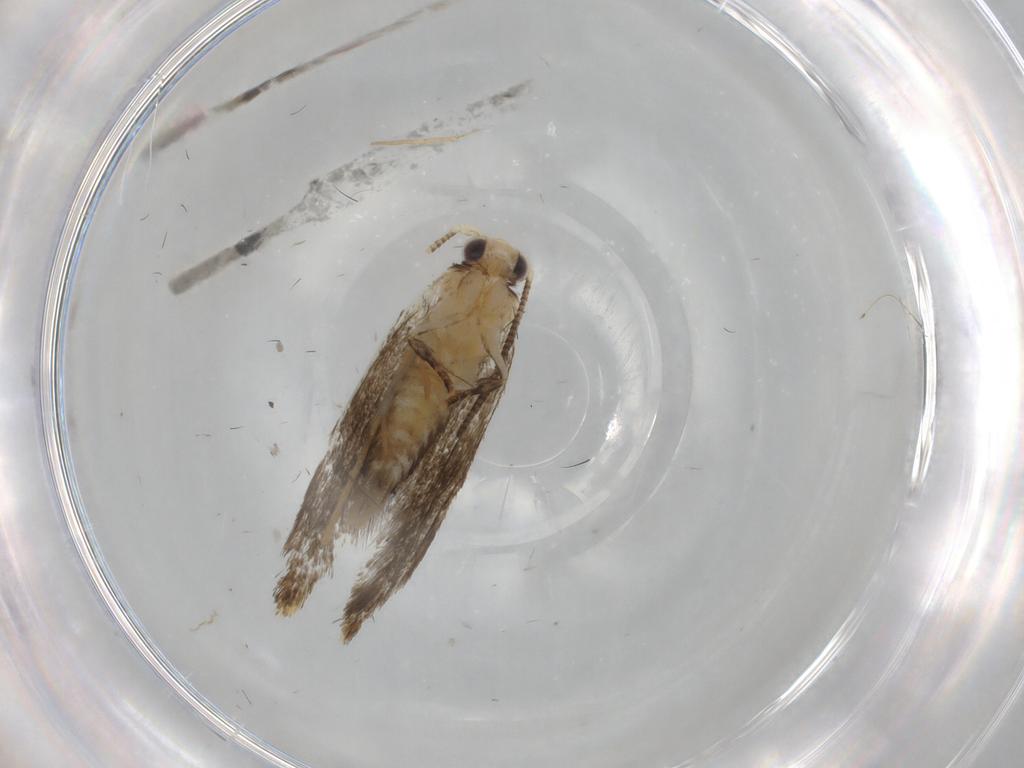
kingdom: Animalia
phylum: Arthropoda
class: Insecta
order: Lepidoptera
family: Tineidae
